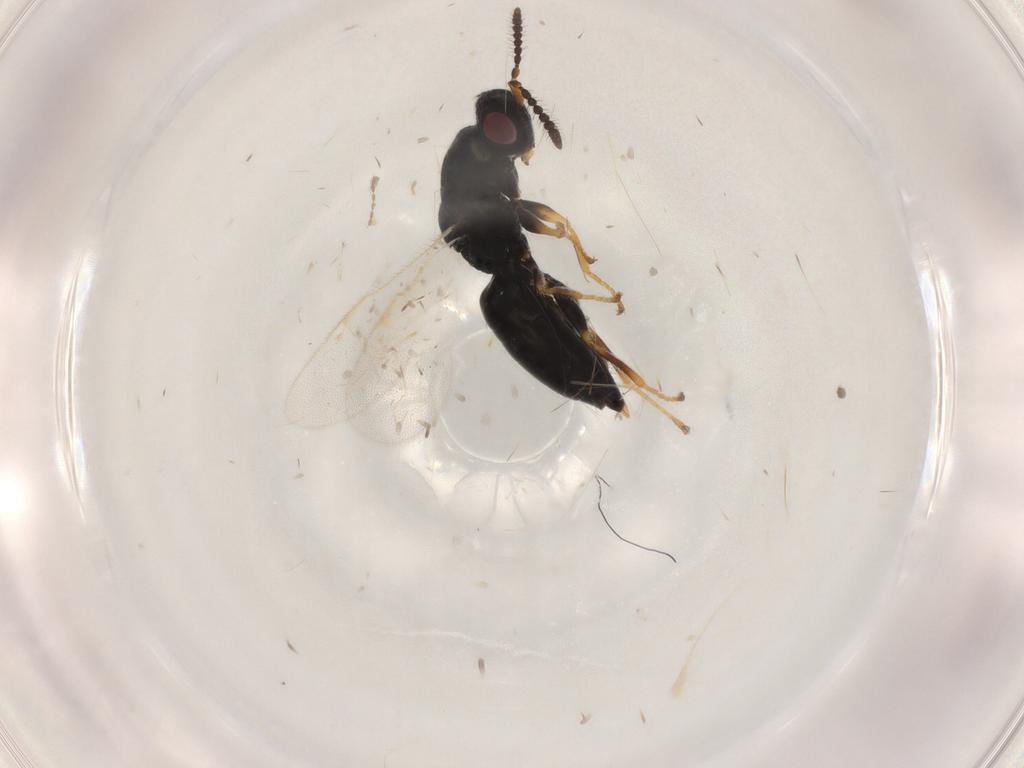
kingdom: Animalia
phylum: Arthropoda
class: Insecta
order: Hymenoptera
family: Eurytomidae
